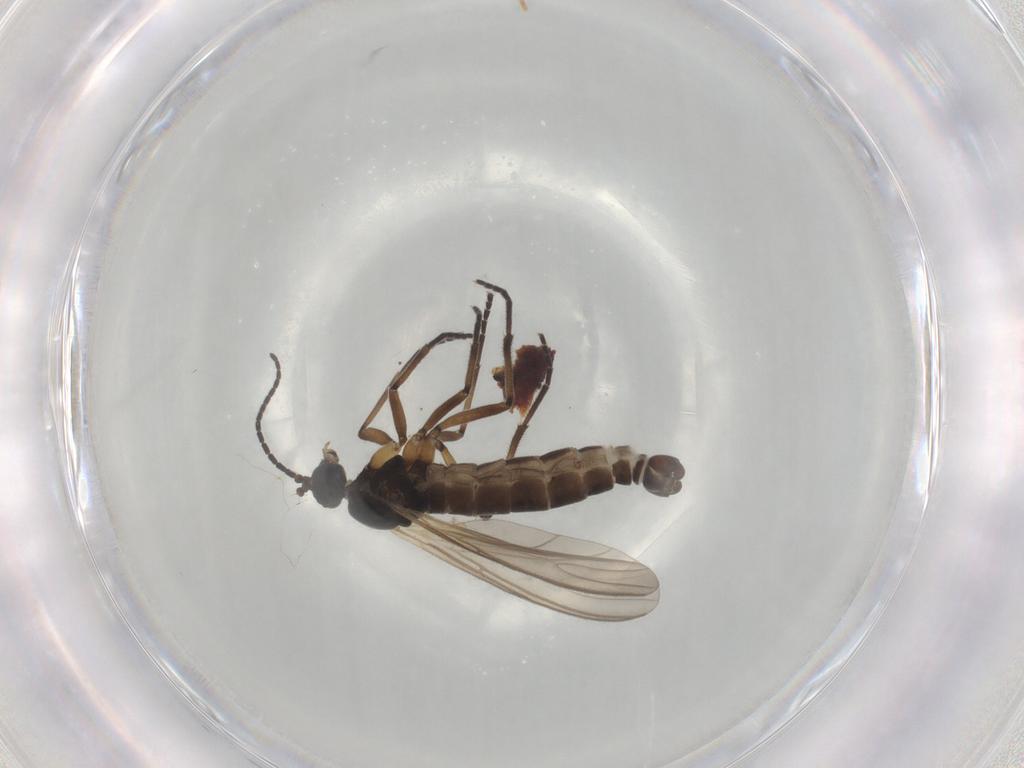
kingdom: Animalia
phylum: Arthropoda
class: Insecta
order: Diptera
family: Sciaridae
